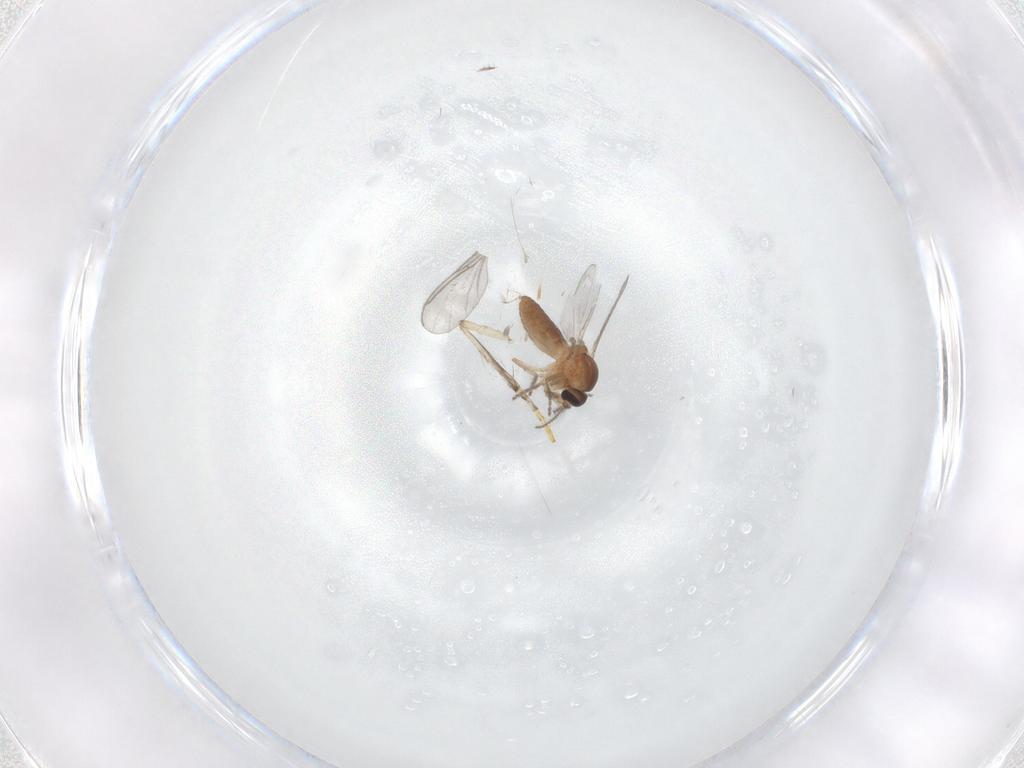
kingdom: Animalia
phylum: Arthropoda
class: Insecta
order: Diptera
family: Ceratopogonidae
